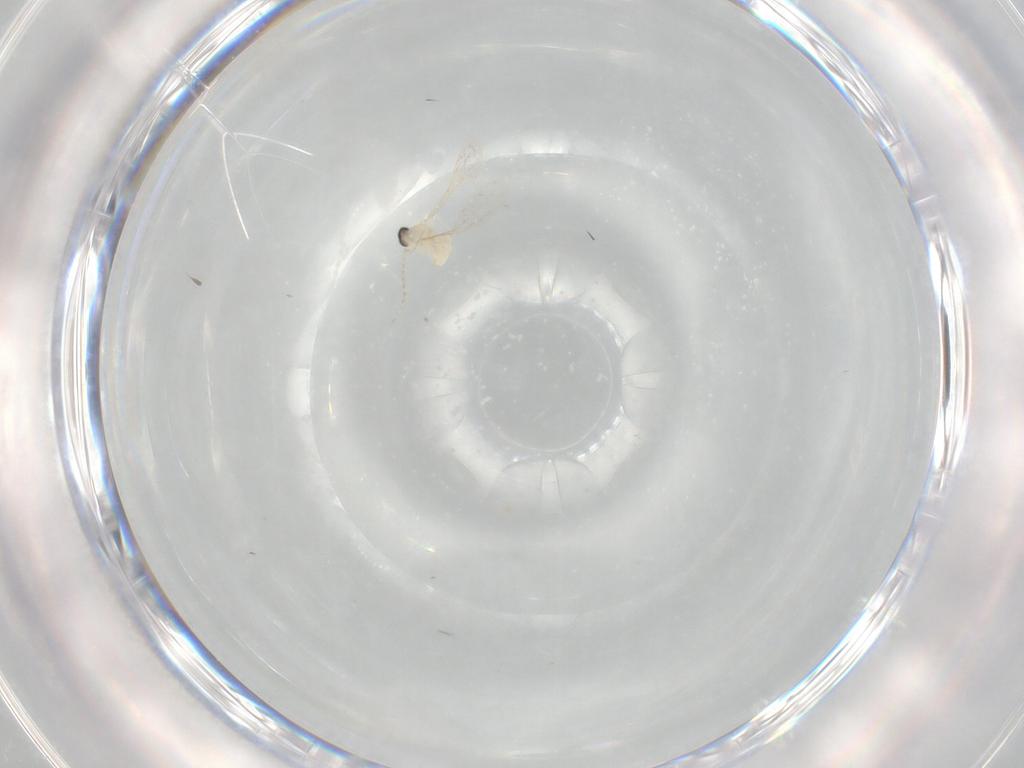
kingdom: Animalia
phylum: Arthropoda
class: Insecta
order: Diptera
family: Cecidomyiidae
